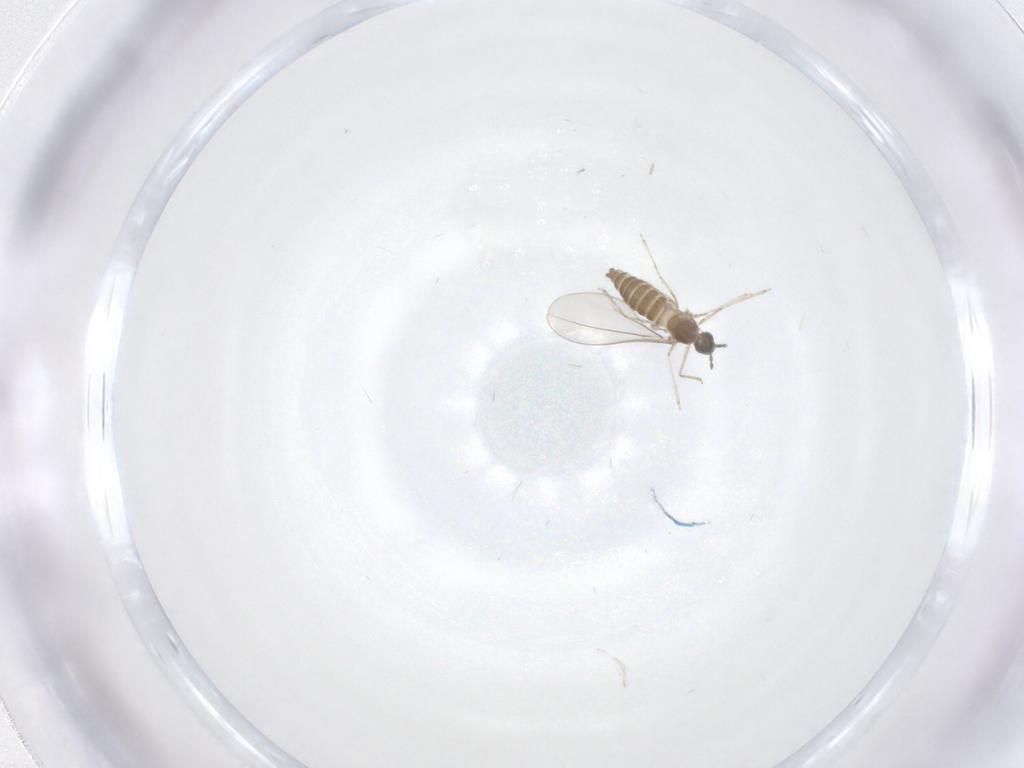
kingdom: Animalia
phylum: Arthropoda
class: Insecta
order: Diptera
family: Cecidomyiidae
